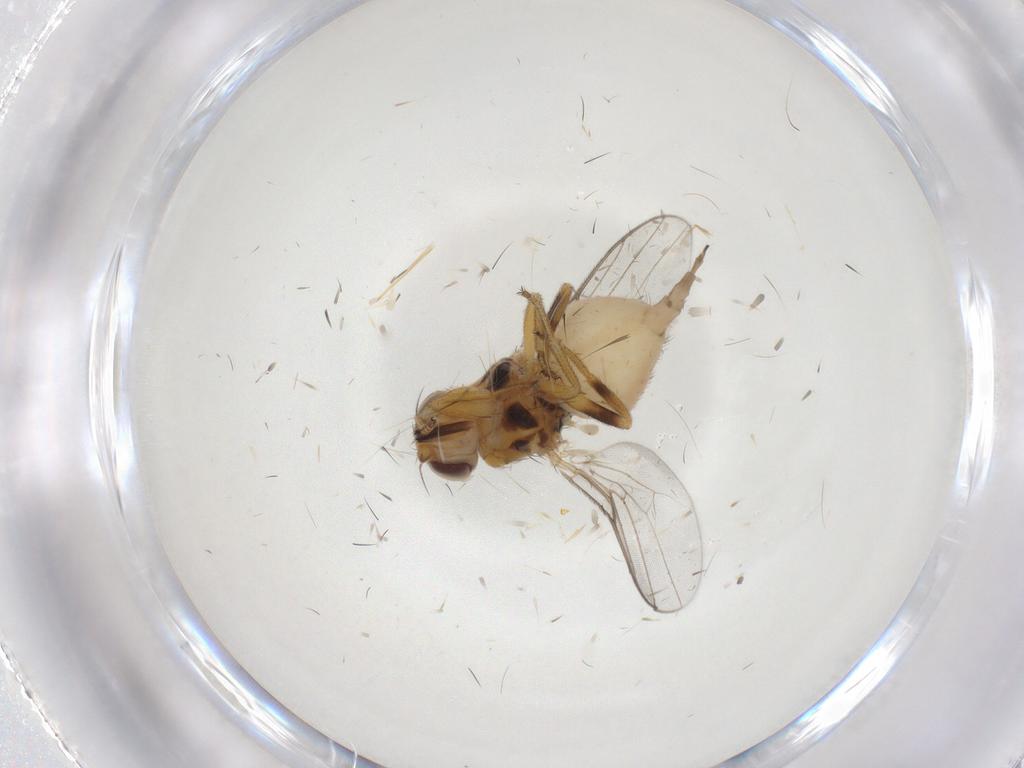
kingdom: Animalia
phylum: Arthropoda
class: Insecta
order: Diptera
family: Chloropidae
